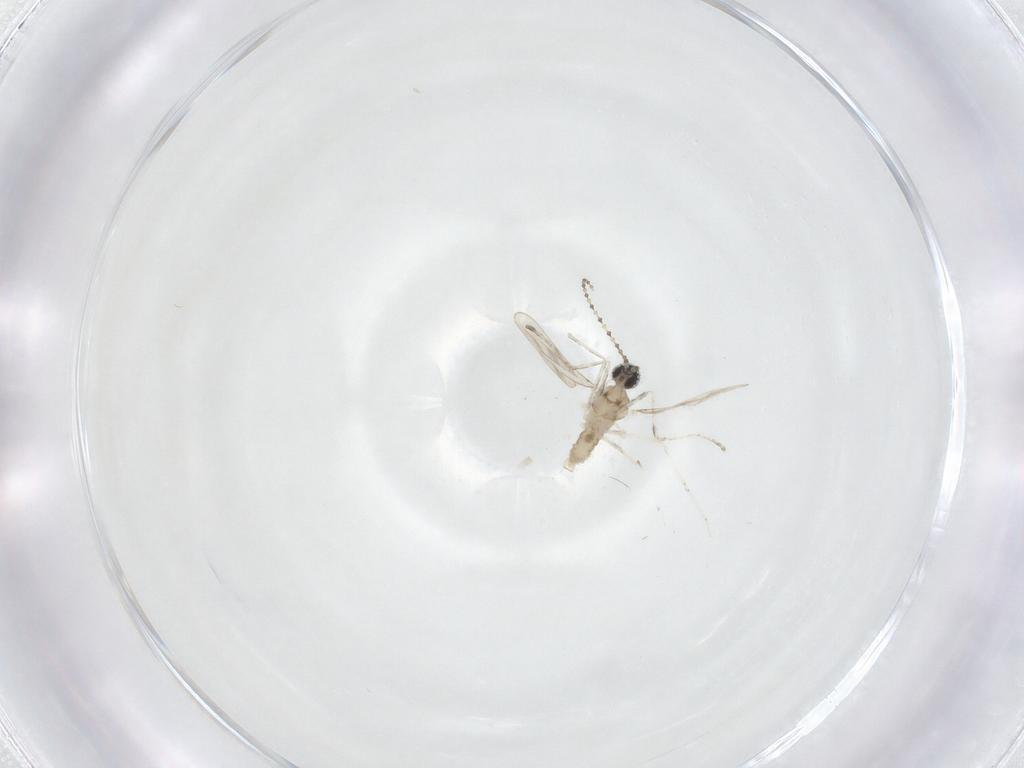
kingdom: Animalia
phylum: Arthropoda
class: Insecta
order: Diptera
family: Cecidomyiidae
